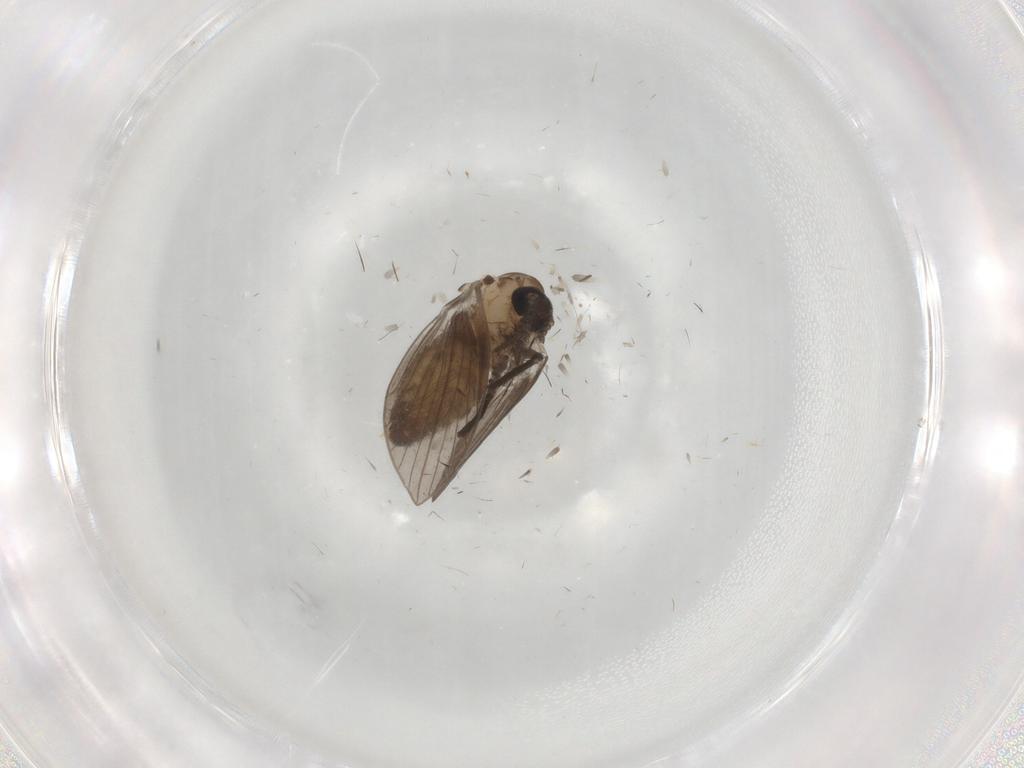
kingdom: Animalia
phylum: Arthropoda
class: Insecta
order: Diptera
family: Psychodidae
